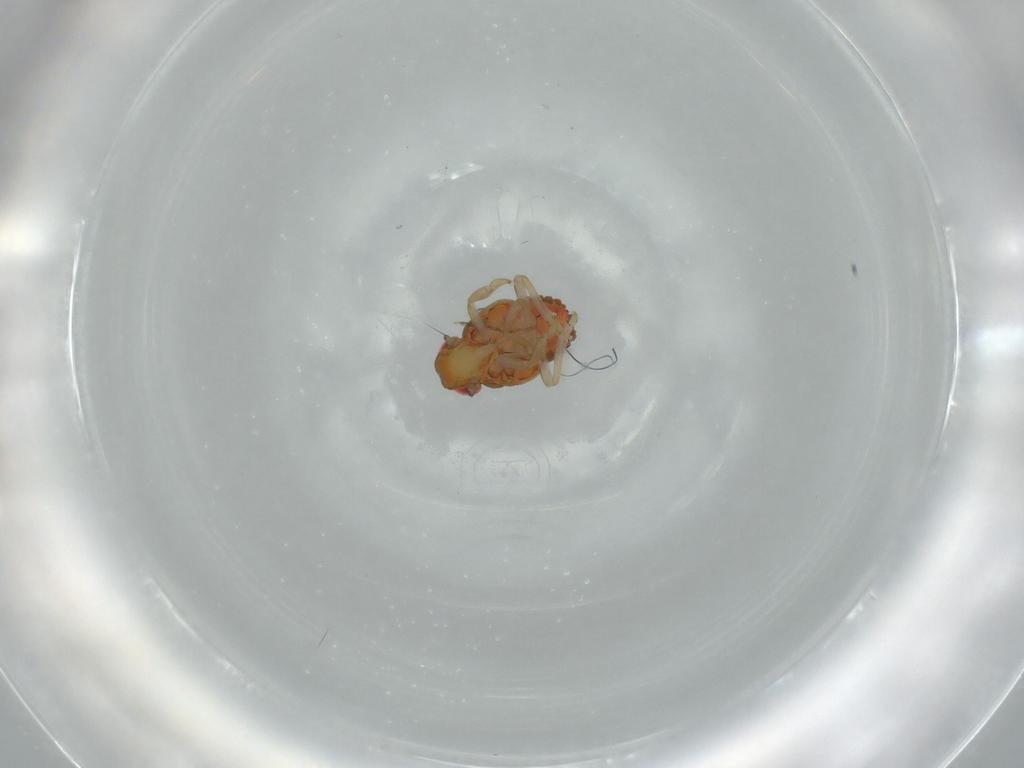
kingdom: Animalia
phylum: Arthropoda
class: Insecta
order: Hemiptera
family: Issidae
